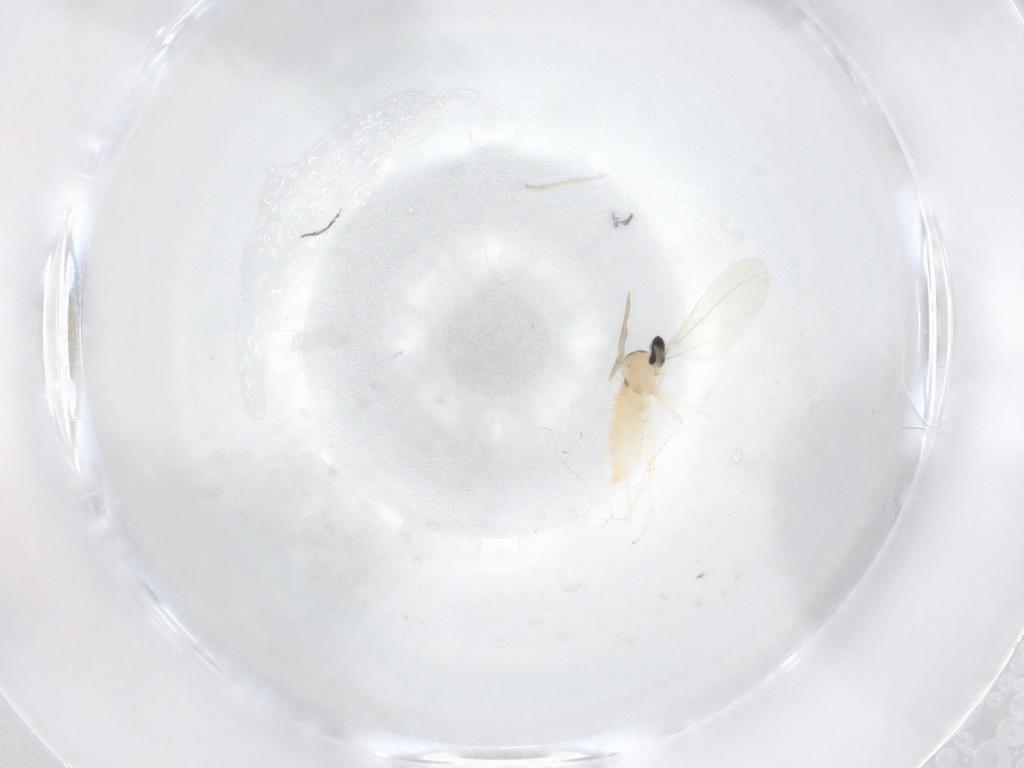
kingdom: Animalia
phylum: Arthropoda
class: Insecta
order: Diptera
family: Cecidomyiidae
